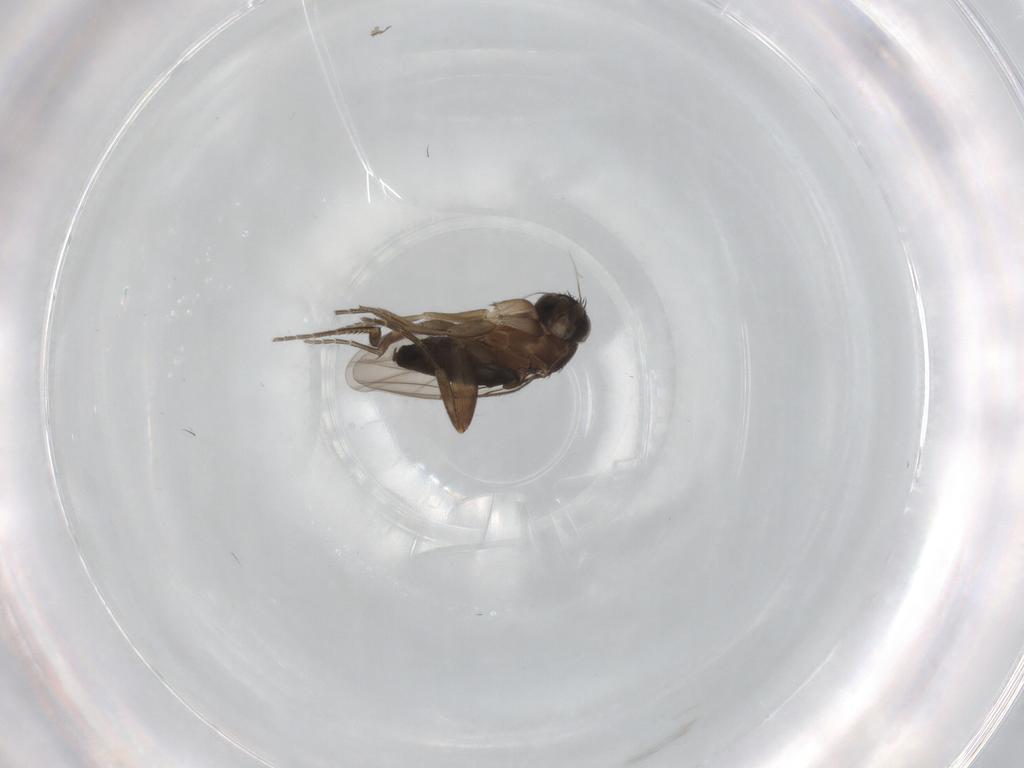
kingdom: Animalia
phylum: Arthropoda
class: Insecta
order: Diptera
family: Phoridae
